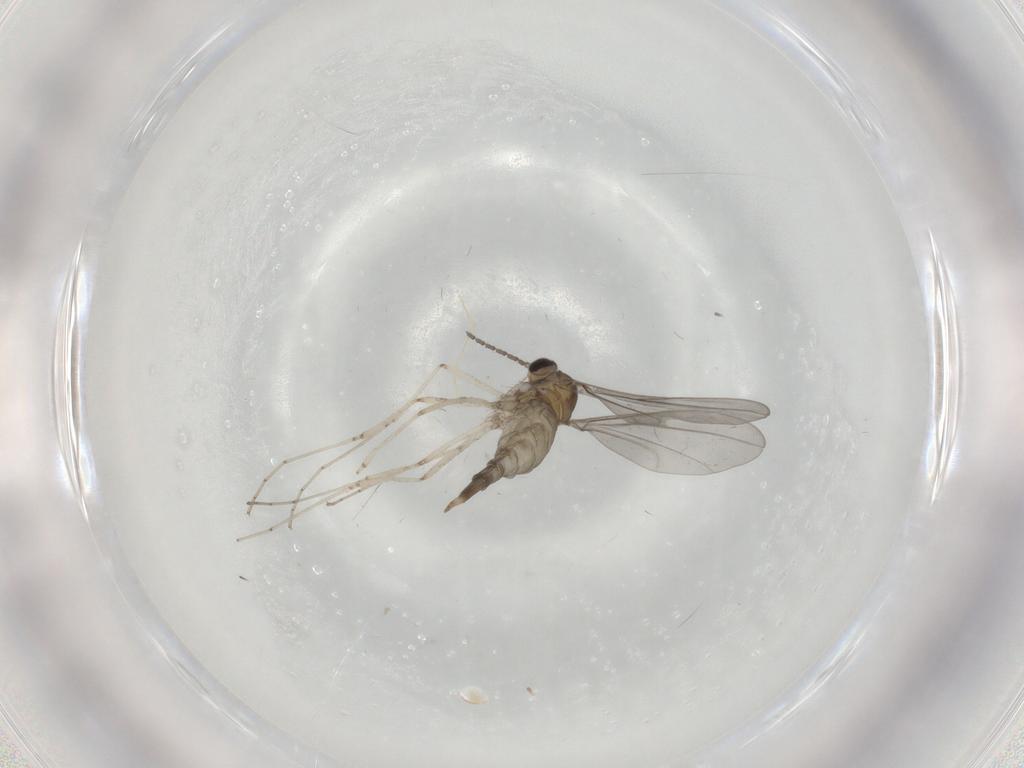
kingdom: Animalia
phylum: Arthropoda
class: Insecta
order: Diptera
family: Cecidomyiidae
